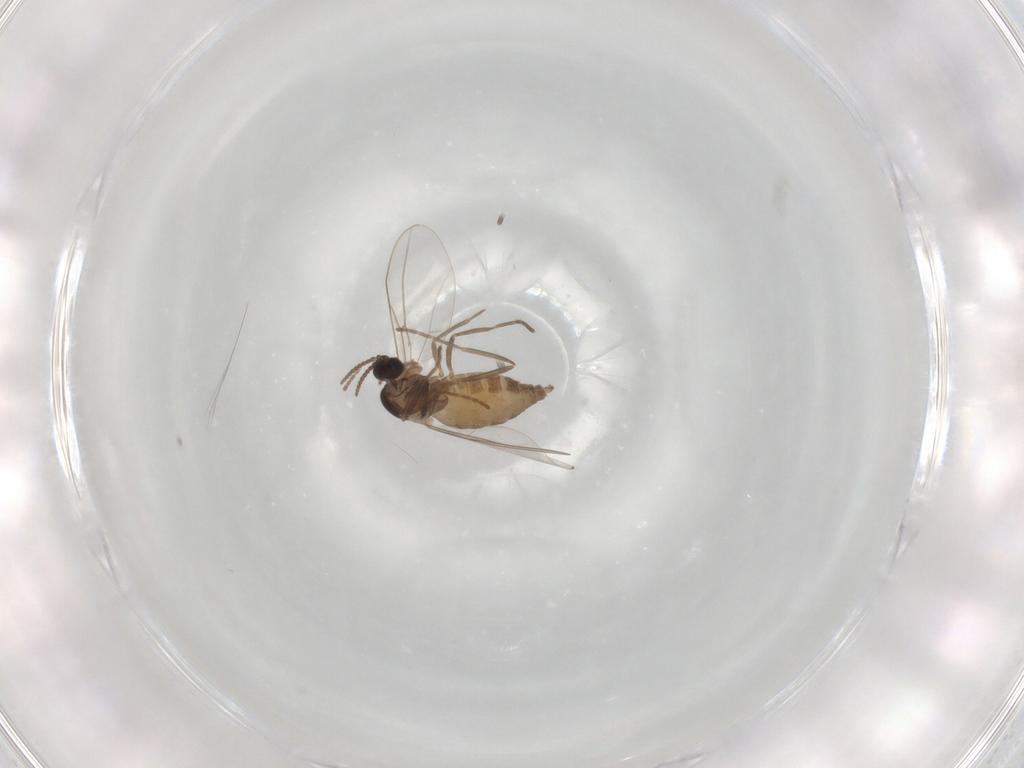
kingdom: Animalia
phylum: Arthropoda
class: Insecta
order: Diptera
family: Cecidomyiidae
